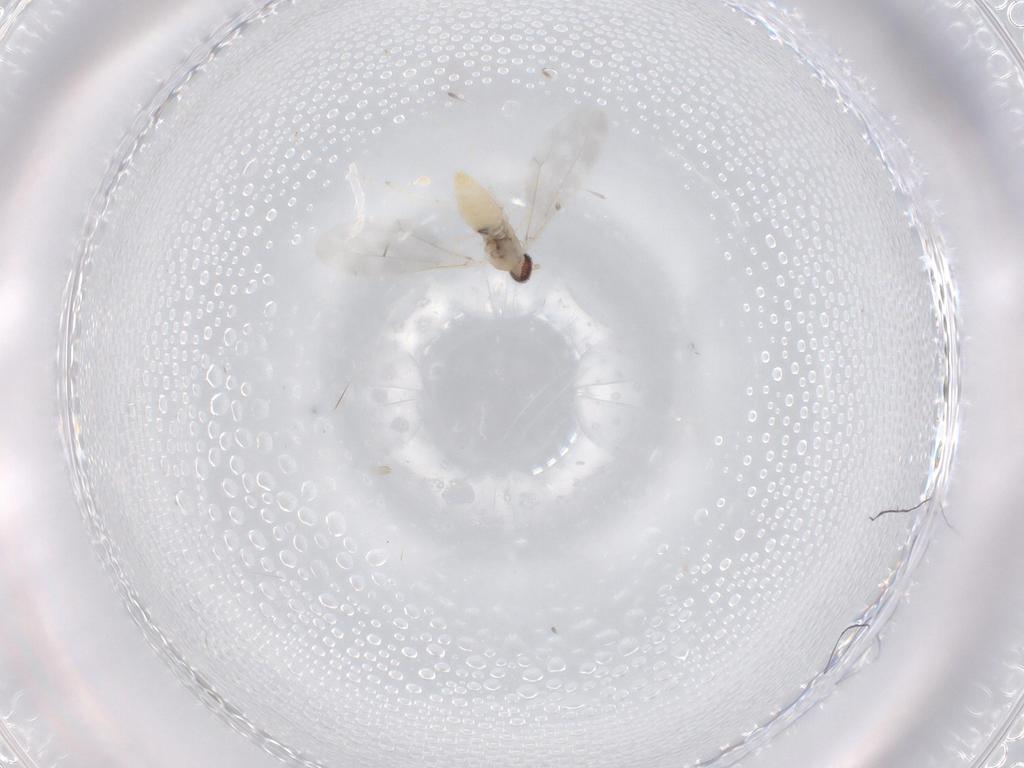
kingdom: Animalia
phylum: Arthropoda
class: Insecta
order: Diptera
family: Cecidomyiidae
